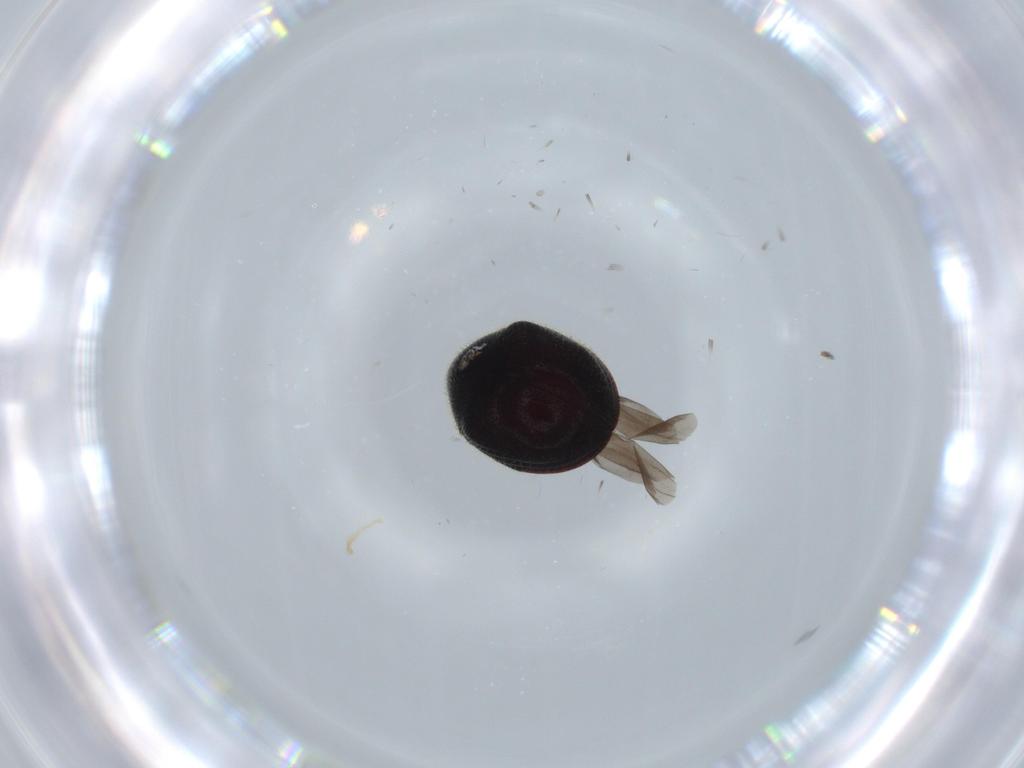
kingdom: Animalia
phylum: Arthropoda
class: Insecta
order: Coleoptera
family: Ptinidae
